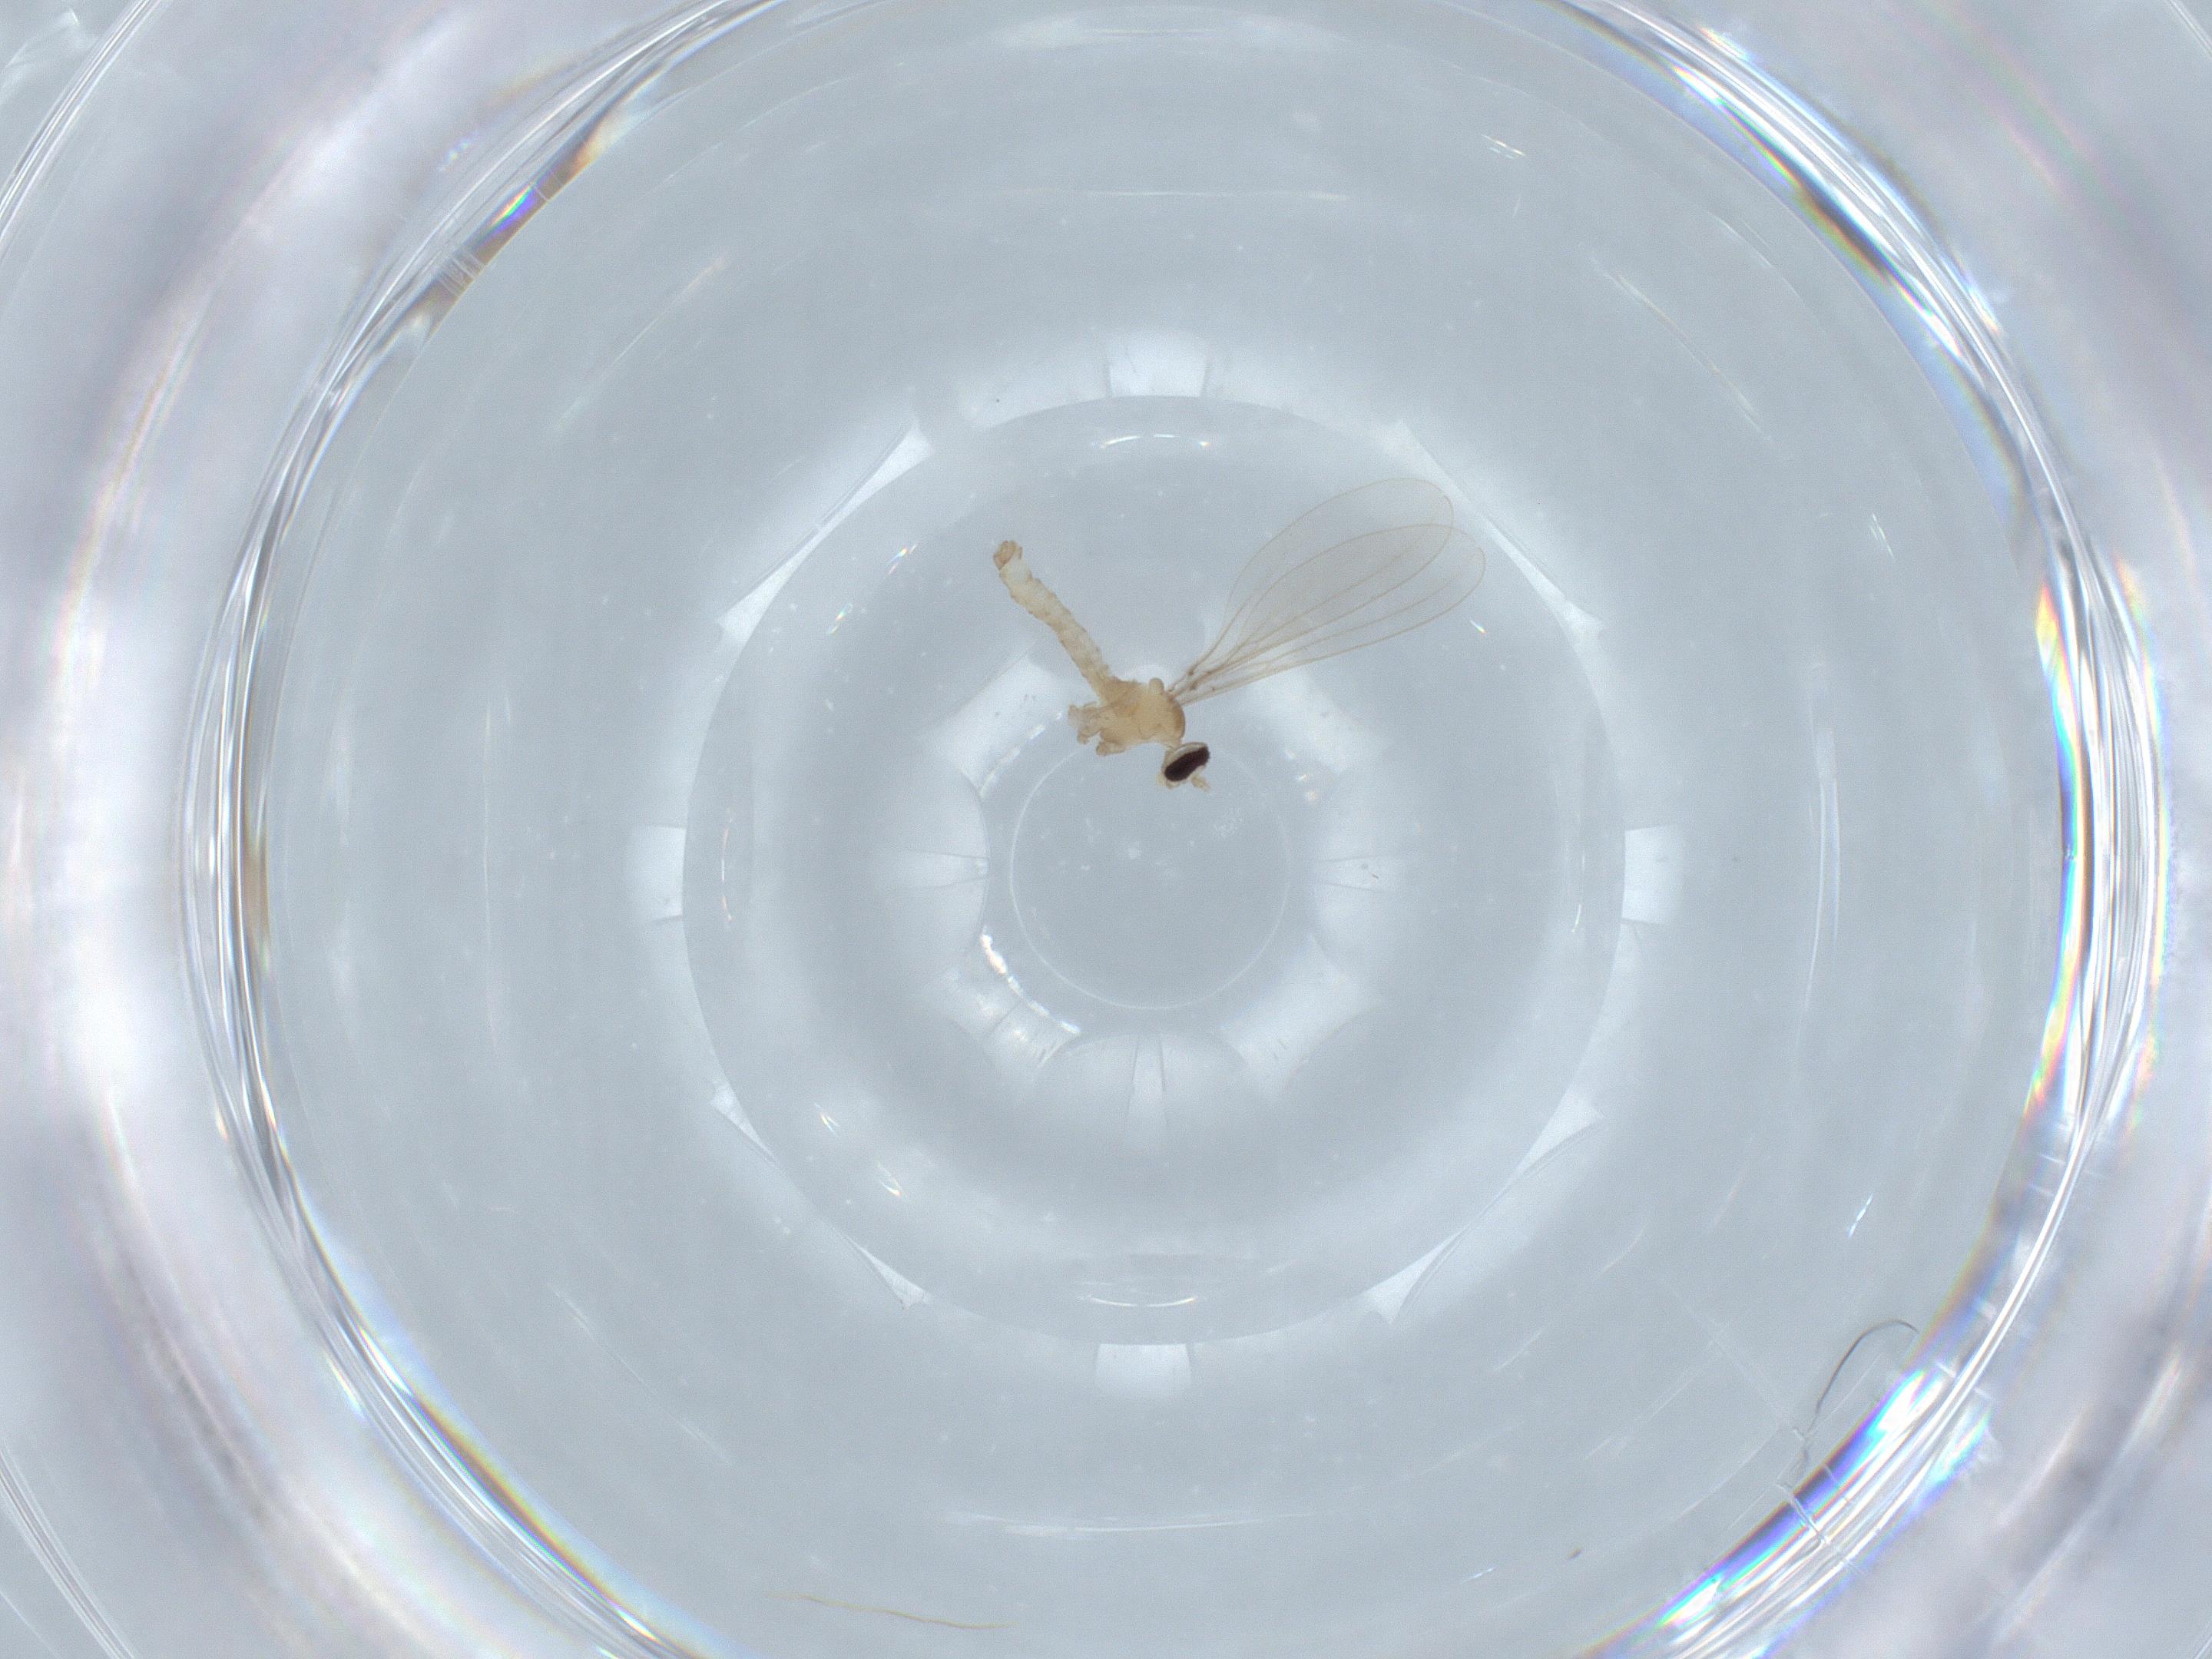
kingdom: Animalia
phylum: Arthropoda
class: Insecta
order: Diptera
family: Cecidomyiidae
